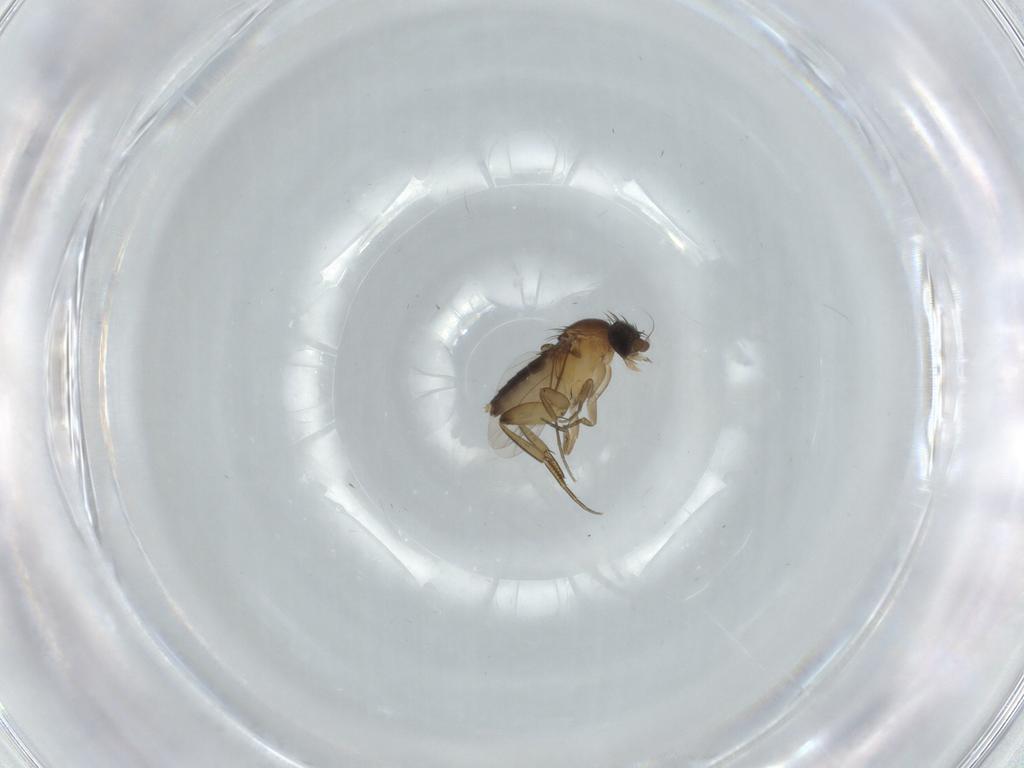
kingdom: Animalia
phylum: Arthropoda
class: Insecta
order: Diptera
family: Phoridae
